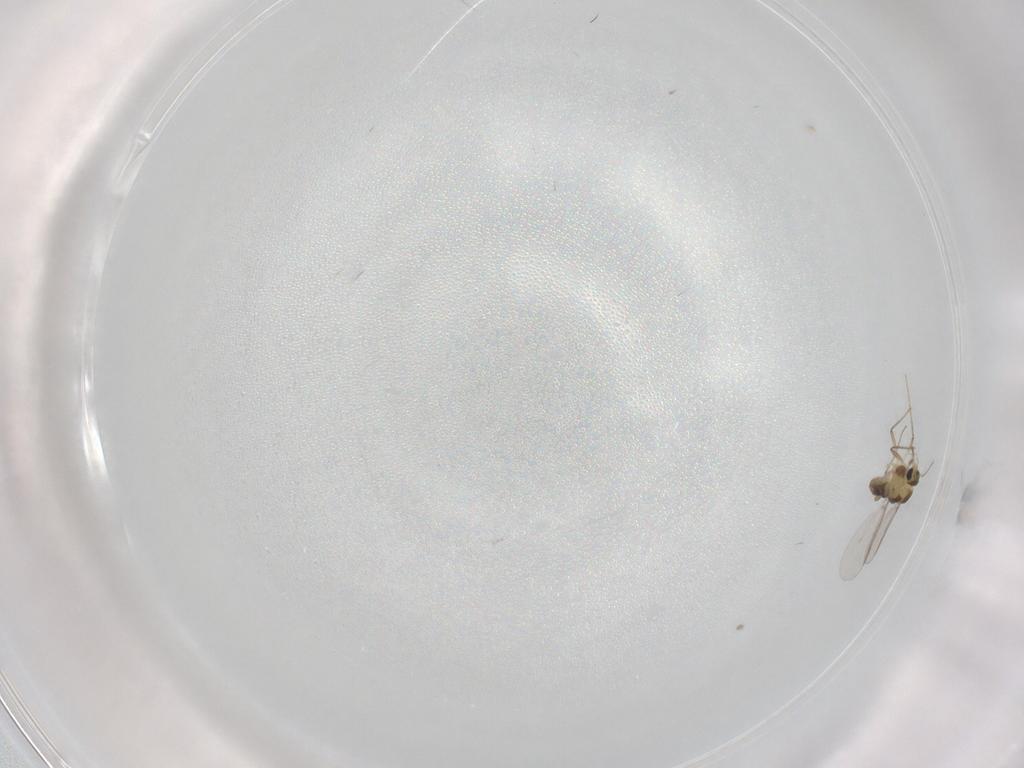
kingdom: Animalia
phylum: Arthropoda
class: Insecta
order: Diptera
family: Chironomidae
